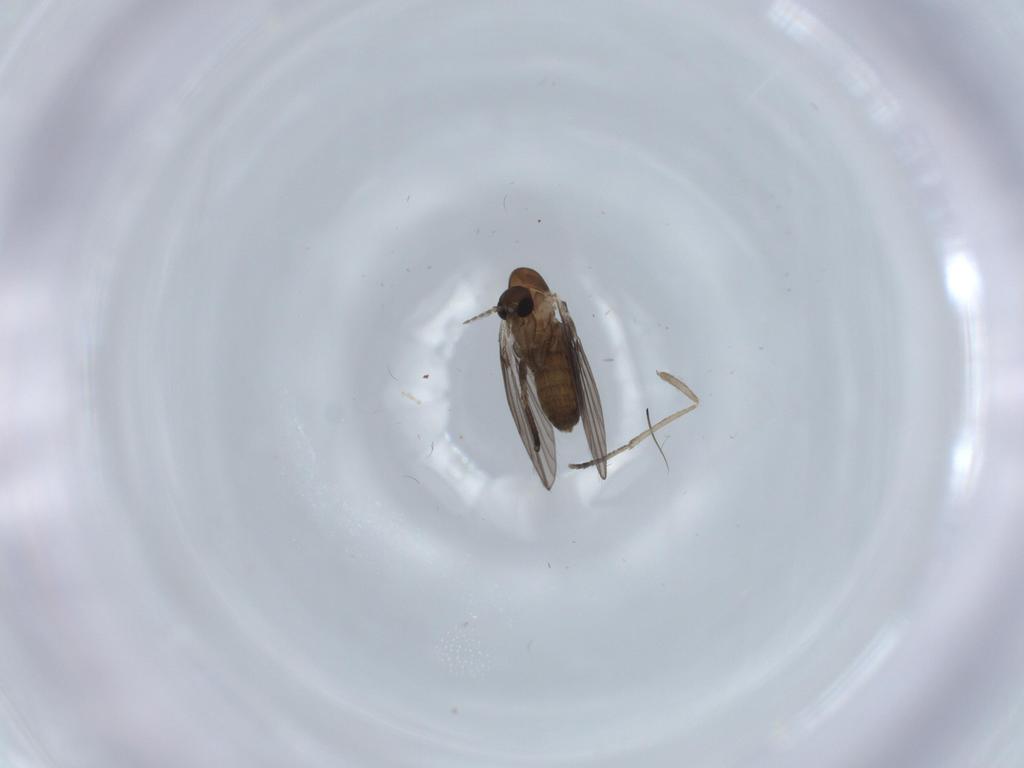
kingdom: Animalia
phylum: Arthropoda
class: Insecta
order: Diptera
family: Psychodidae
